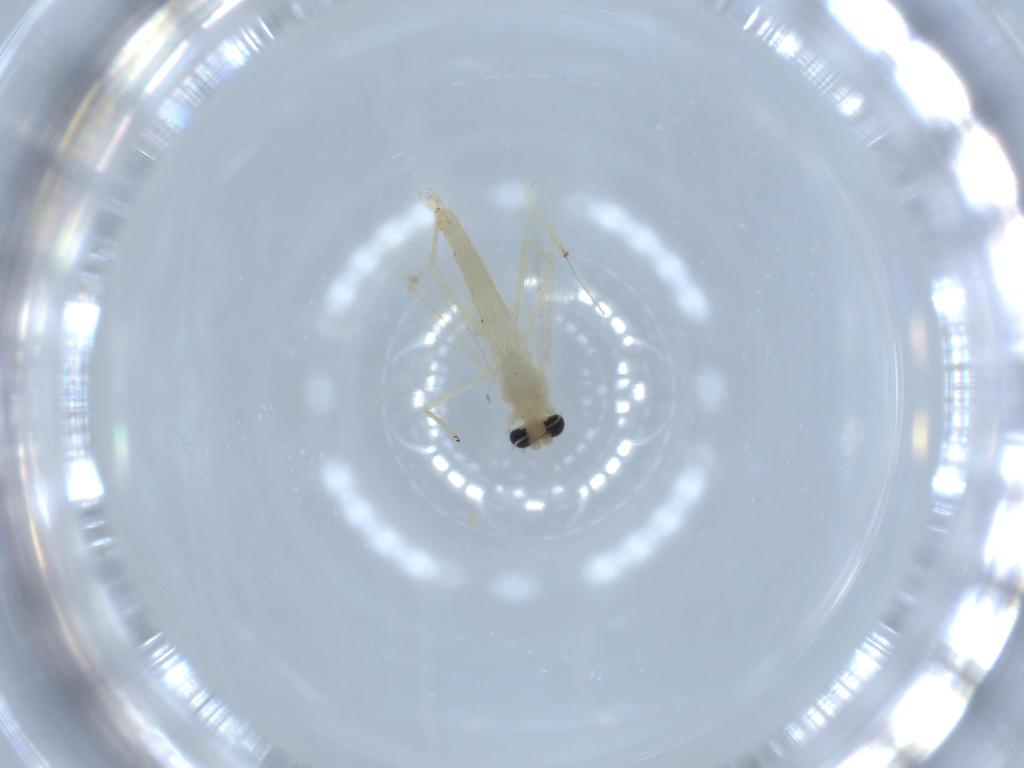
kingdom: Animalia
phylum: Arthropoda
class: Insecta
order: Diptera
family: Chironomidae
